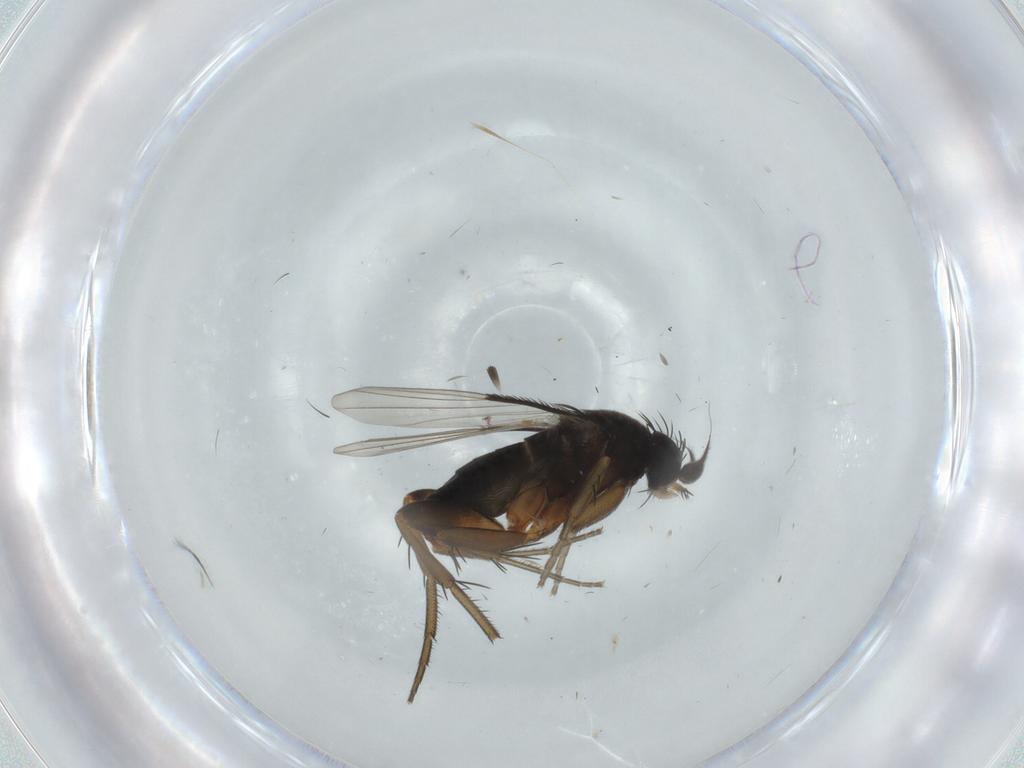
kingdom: Animalia
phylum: Arthropoda
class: Insecta
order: Diptera
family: Phoridae
